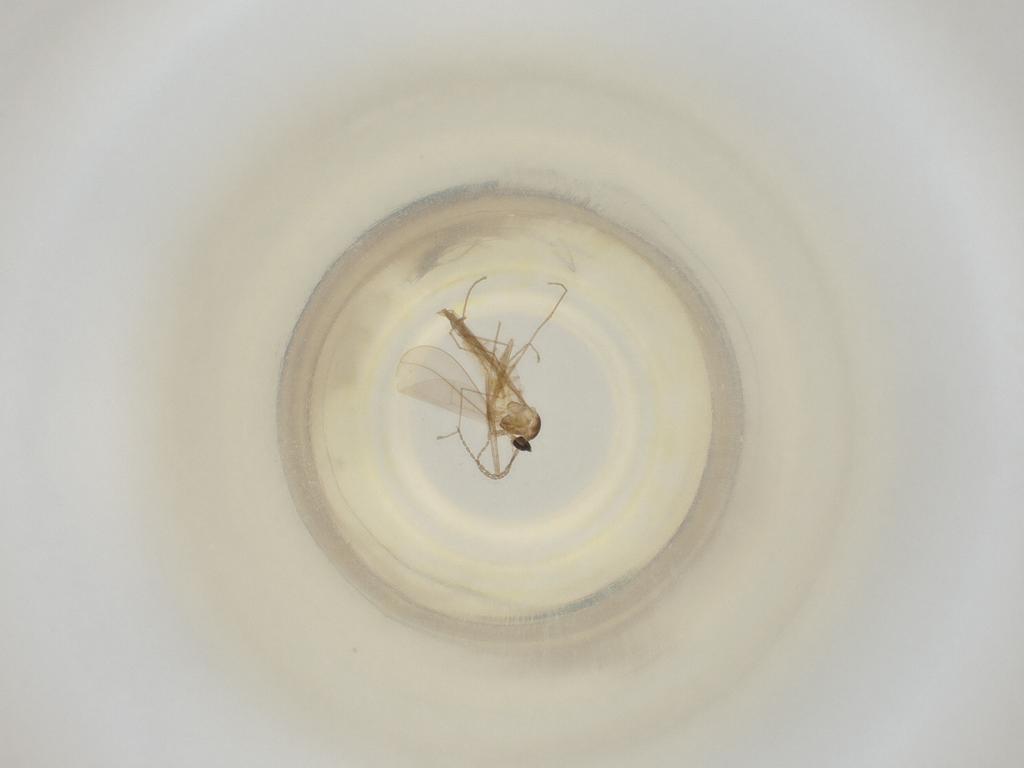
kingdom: Animalia
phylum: Arthropoda
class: Insecta
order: Diptera
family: Cecidomyiidae
